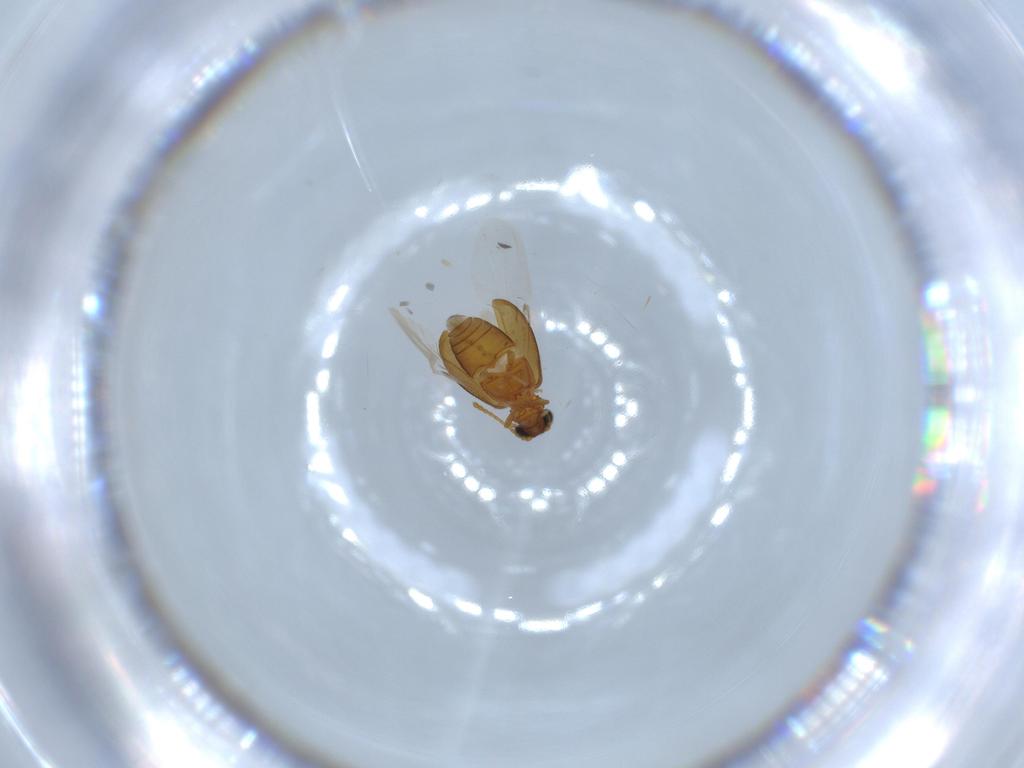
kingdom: Animalia
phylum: Arthropoda
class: Insecta
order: Coleoptera
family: Aderidae
